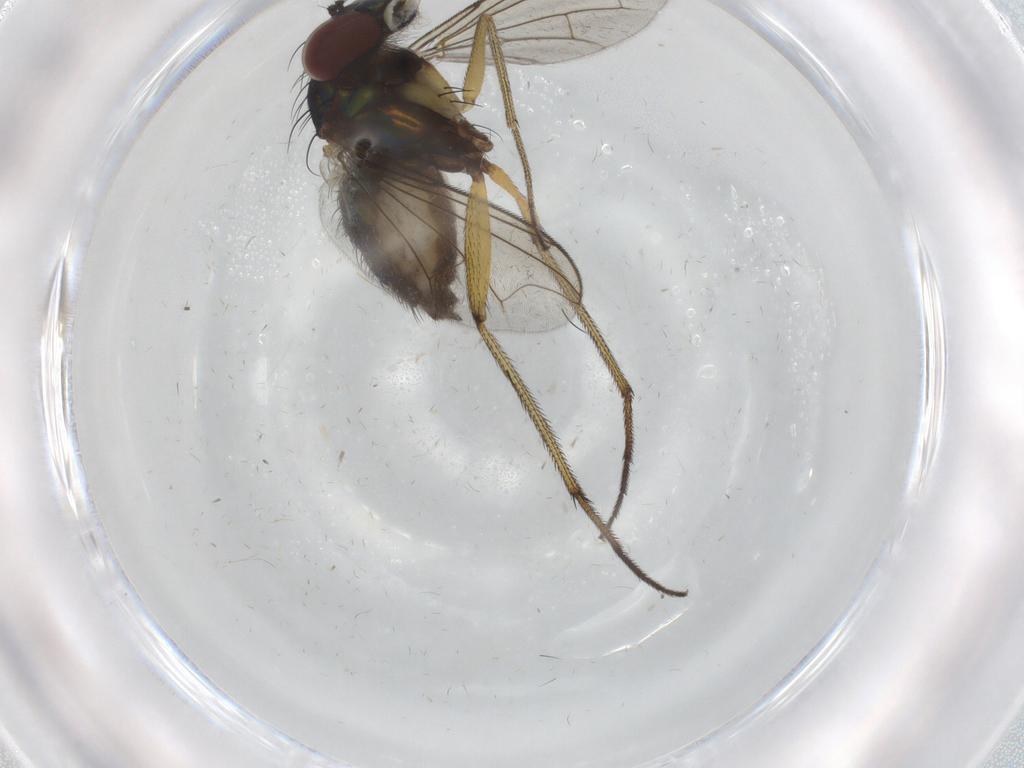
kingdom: Animalia
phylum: Arthropoda
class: Insecta
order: Diptera
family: Dolichopodidae
